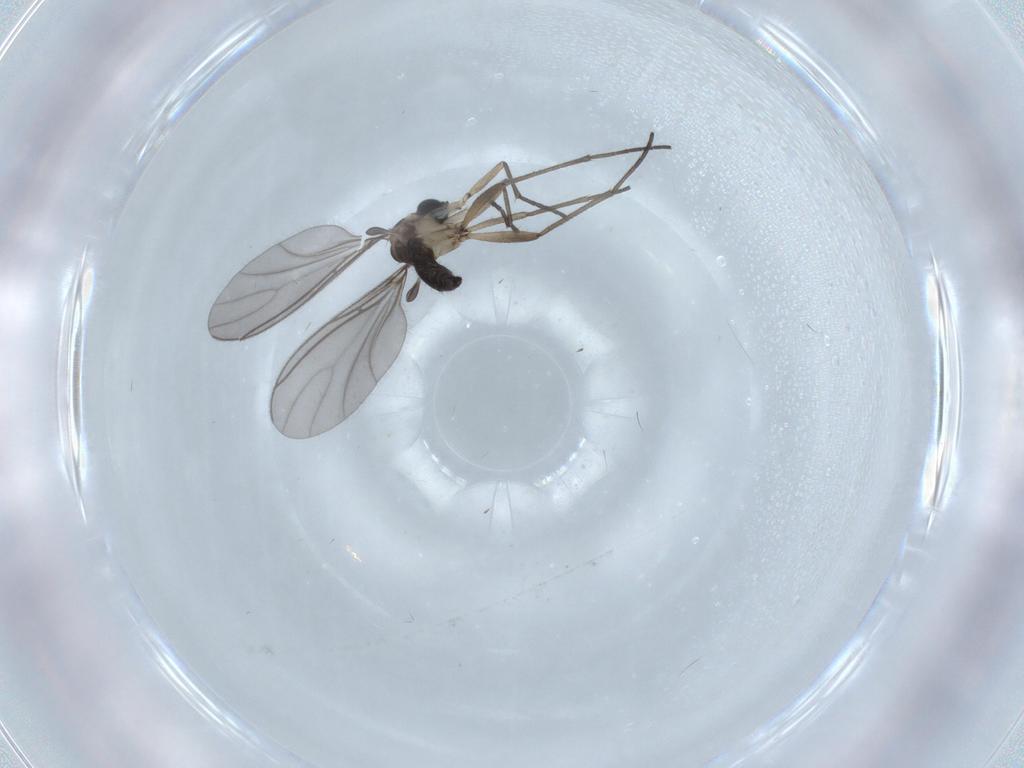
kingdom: Animalia
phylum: Arthropoda
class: Insecta
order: Diptera
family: Sciaridae
